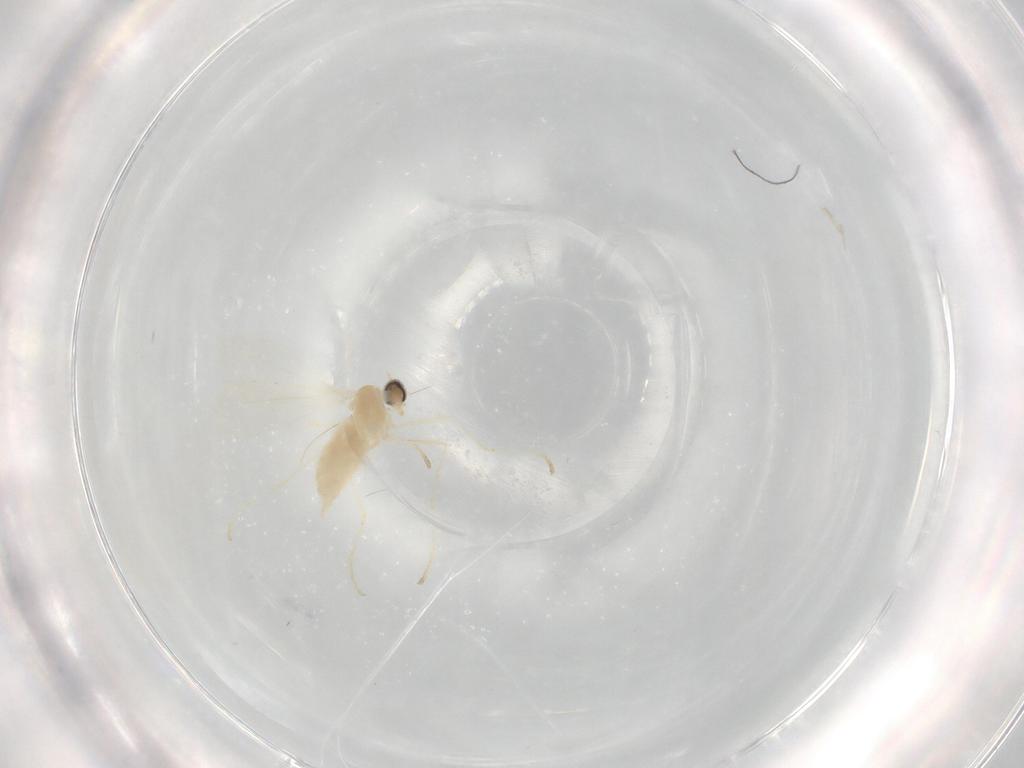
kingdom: Animalia
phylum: Arthropoda
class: Insecta
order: Diptera
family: Cecidomyiidae
